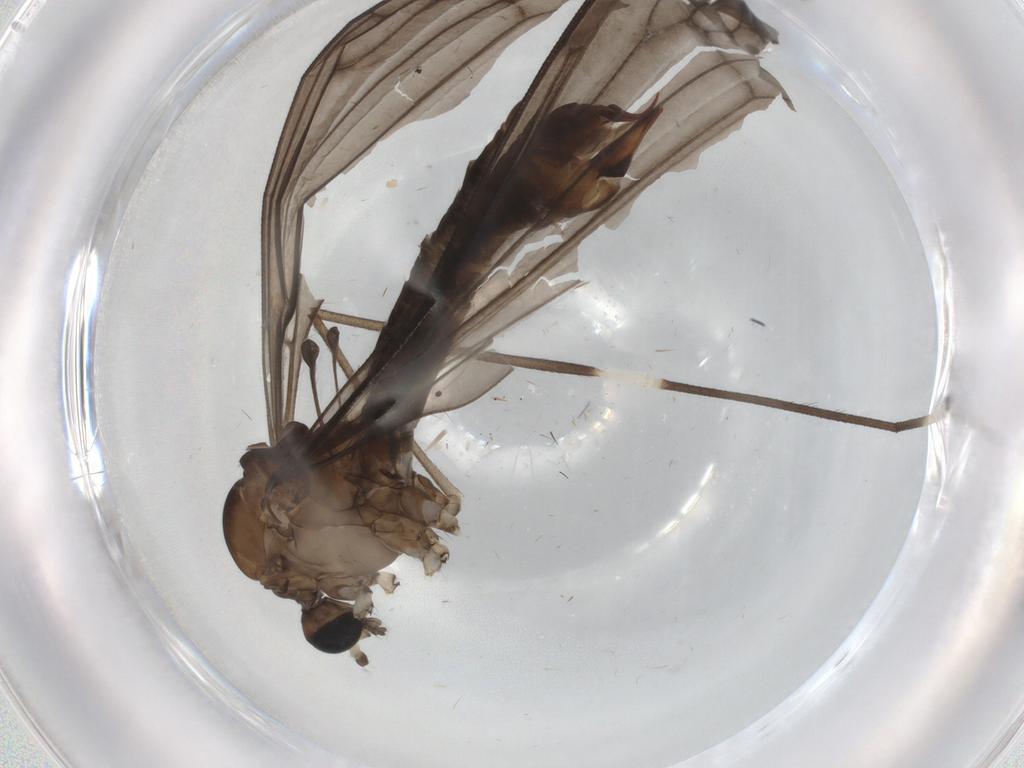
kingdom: Animalia
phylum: Arthropoda
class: Insecta
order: Diptera
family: Limoniidae
